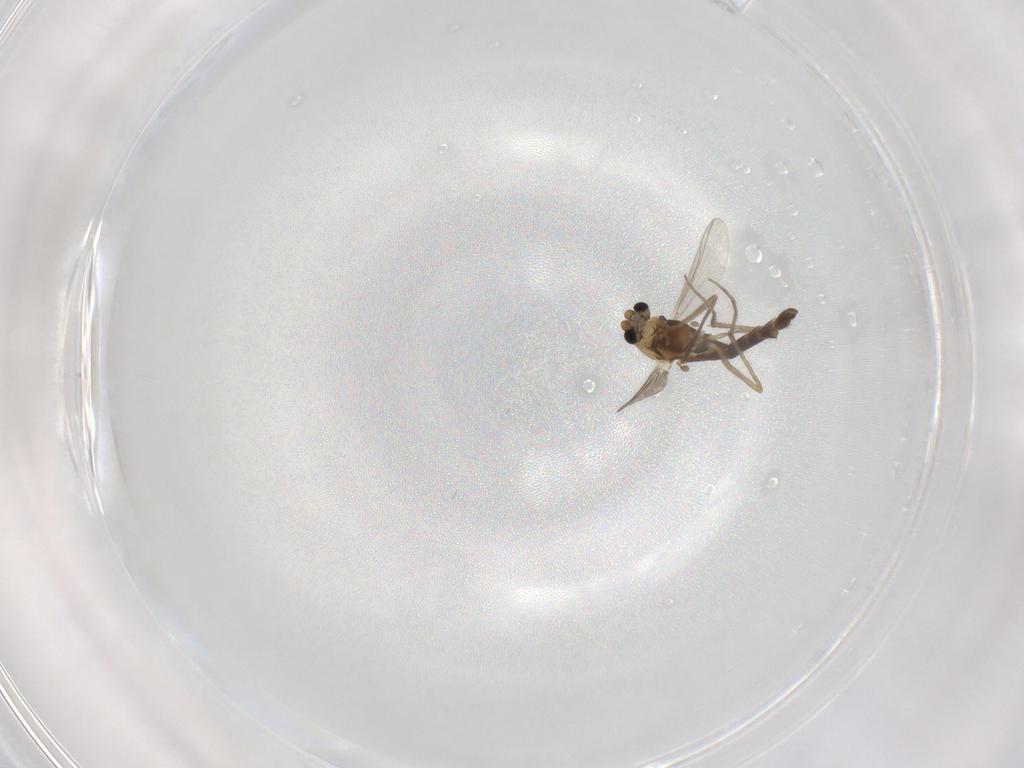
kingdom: Animalia
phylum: Arthropoda
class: Insecta
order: Diptera
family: Chironomidae
